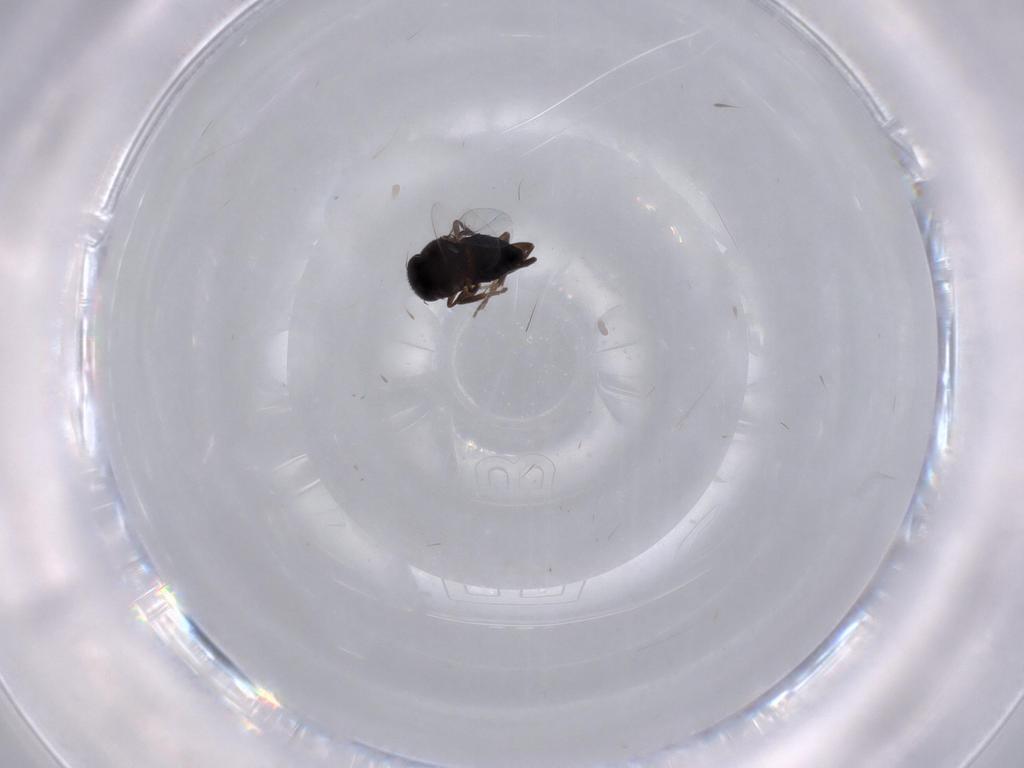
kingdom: Animalia
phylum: Arthropoda
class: Insecta
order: Diptera
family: Phoridae
